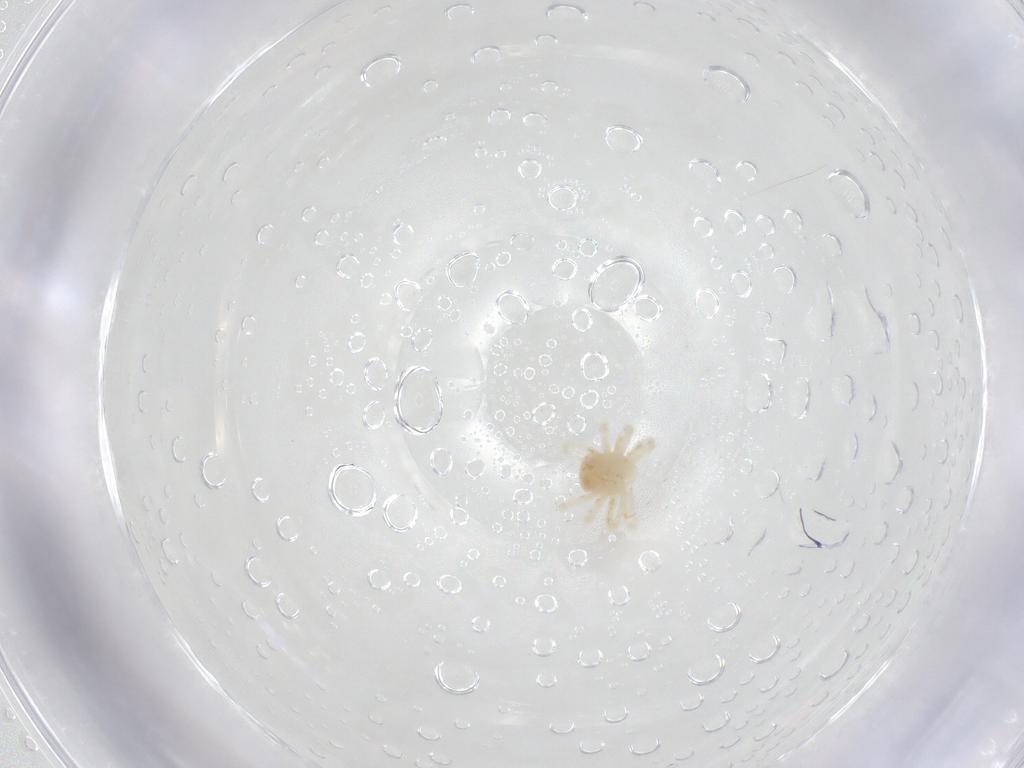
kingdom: Animalia
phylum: Arthropoda
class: Arachnida
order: Trombidiformes
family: Anystidae
